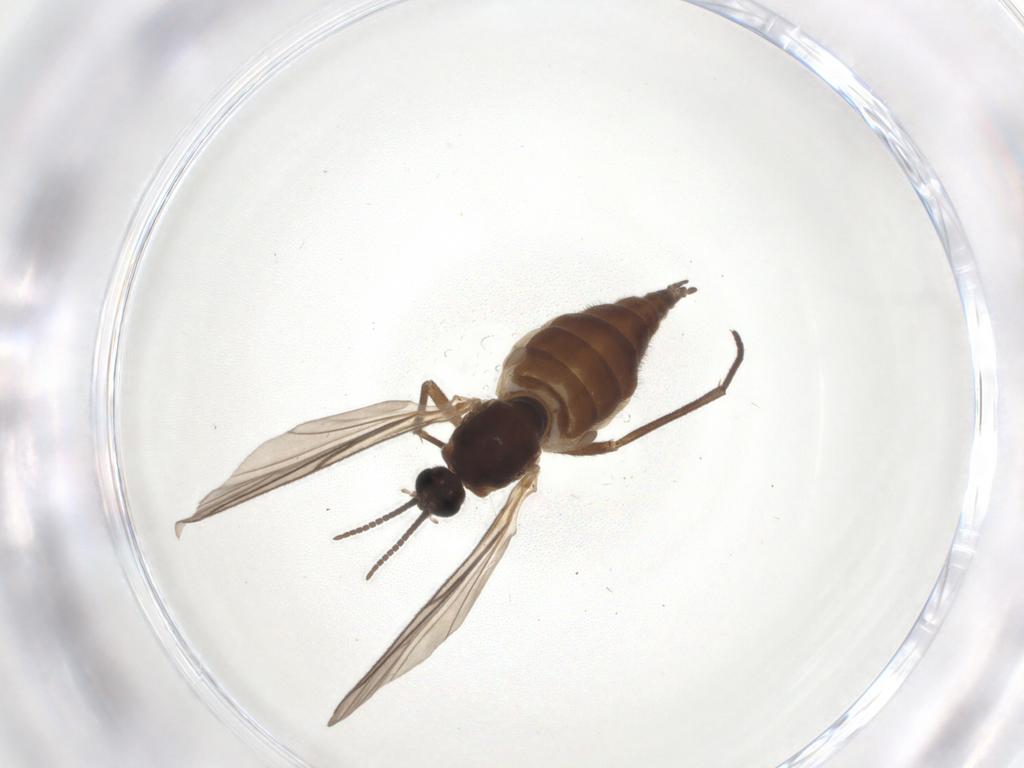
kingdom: Animalia
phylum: Arthropoda
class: Insecta
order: Diptera
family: Sciaridae
